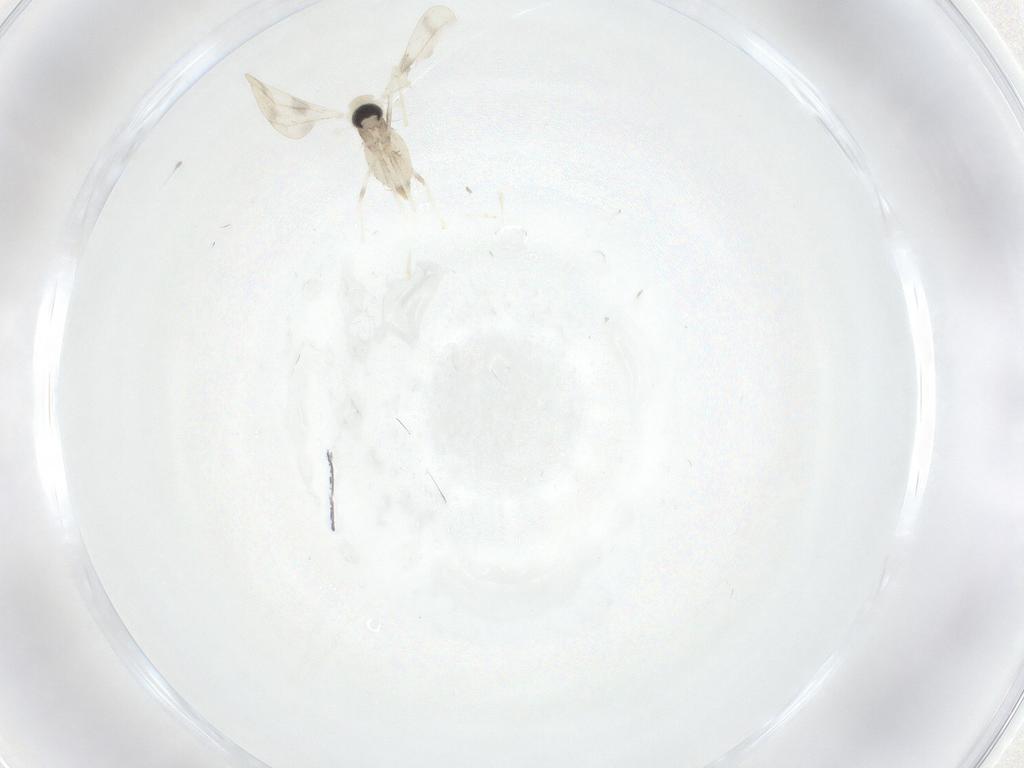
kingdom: Animalia
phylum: Arthropoda
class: Insecta
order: Diptera
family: Cecidomyiidae
